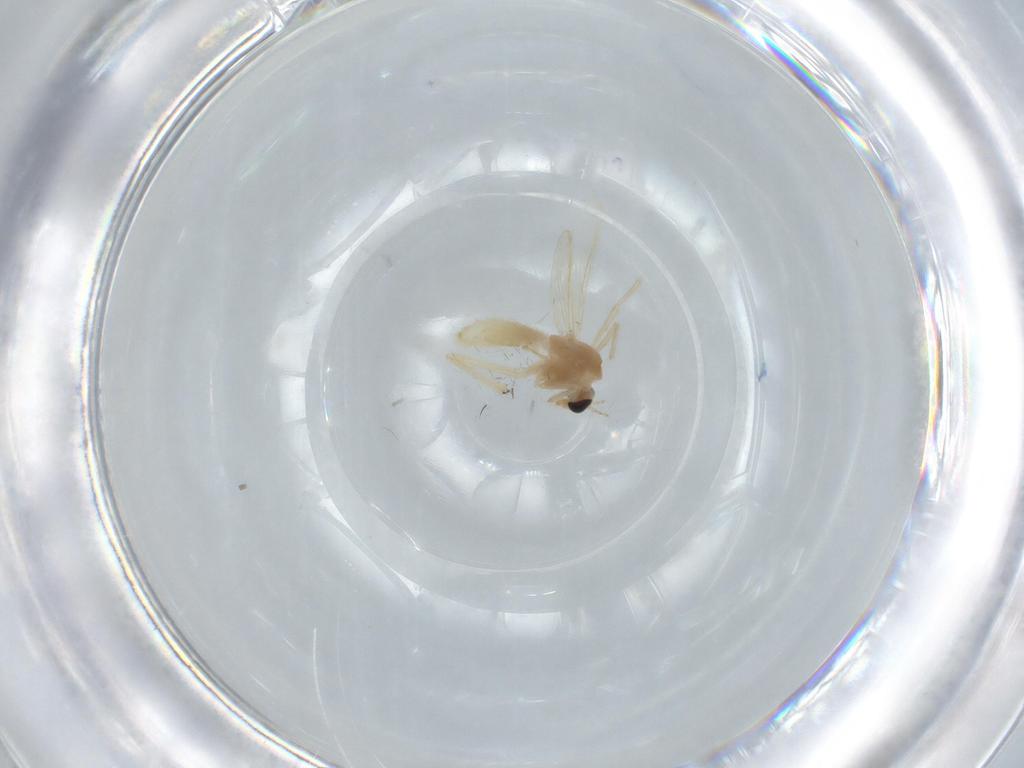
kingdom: Animalia
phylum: Arthropoda
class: Insecta
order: Diptera
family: Chironomidae
